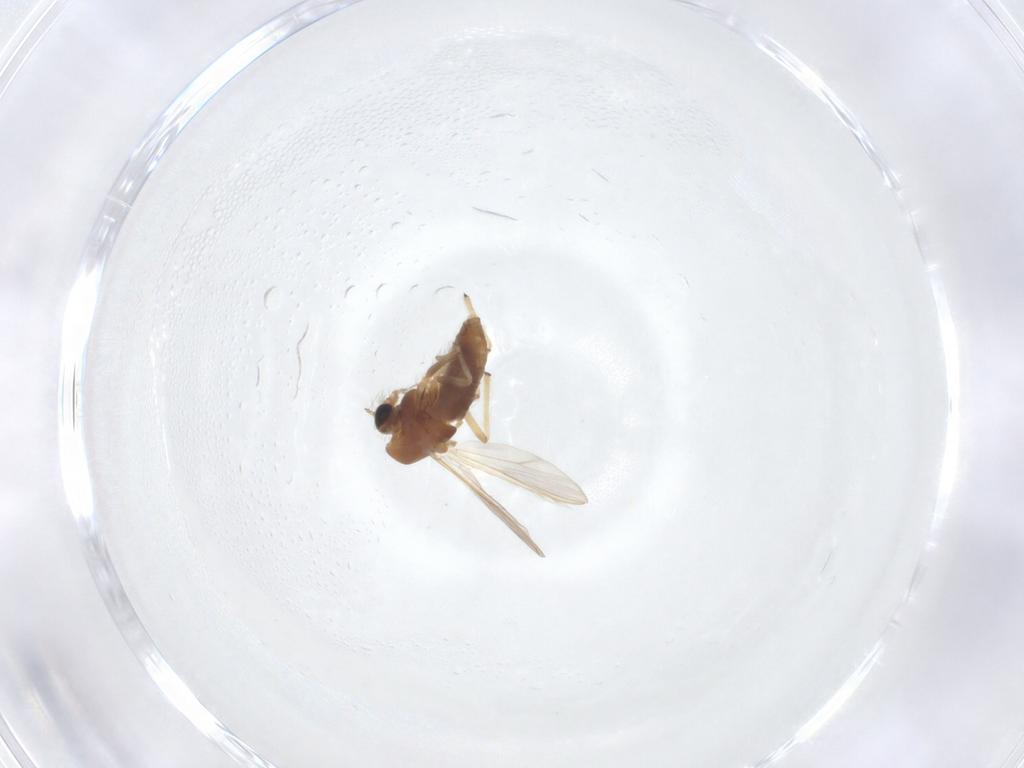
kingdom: Animalia
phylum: Arthropoda
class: Insecta
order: Diptera
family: Chironomidae
